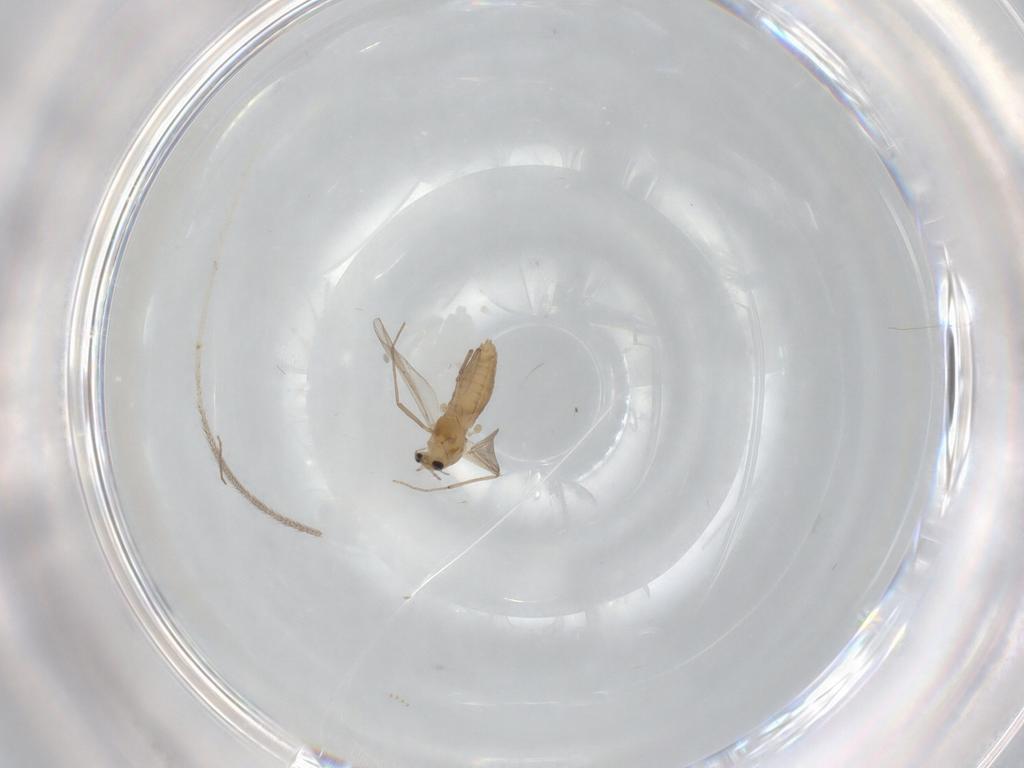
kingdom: Animalia
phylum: Arthropoda
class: Insecta
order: Diptera
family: Chironomidae
